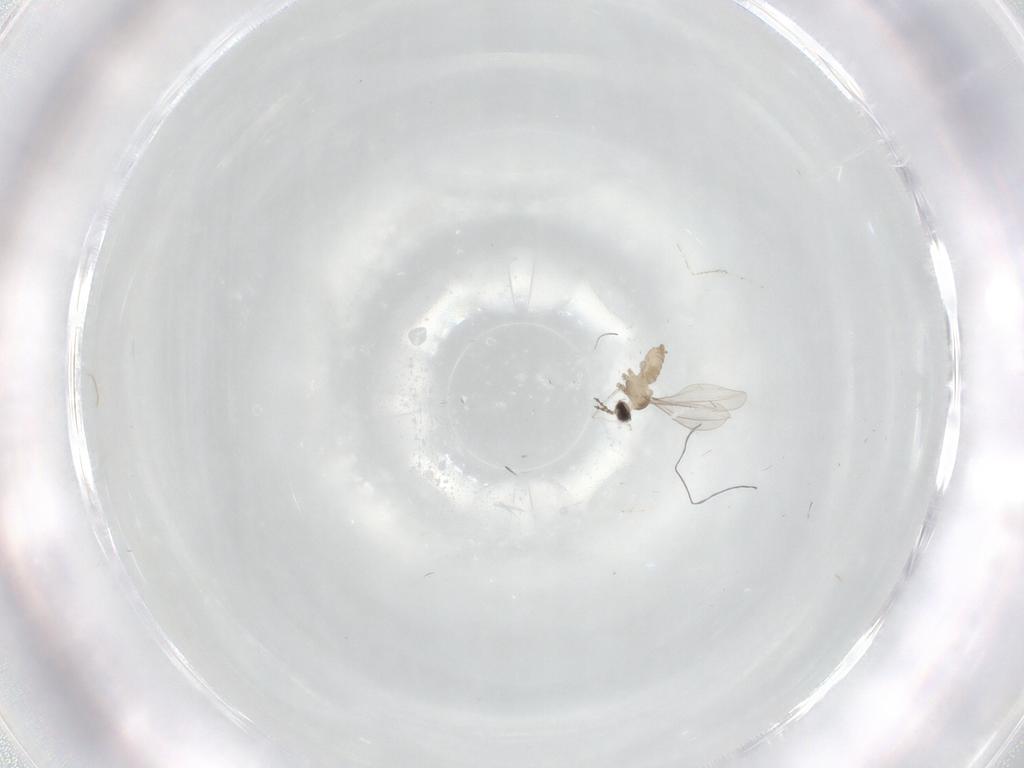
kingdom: Animalia
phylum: Arthropoda
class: Insecta
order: Diptera
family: Cecidomyiidae
